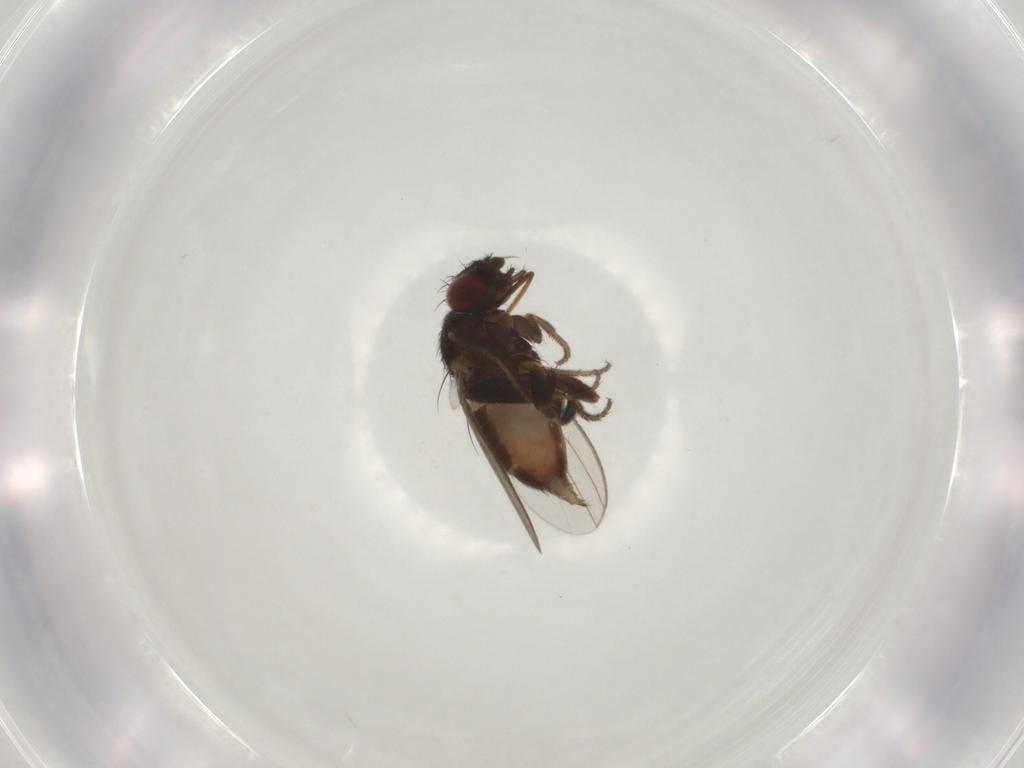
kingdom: Animalia
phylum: Arthropoda
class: Insecta
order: Diptera
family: Milichiidae
